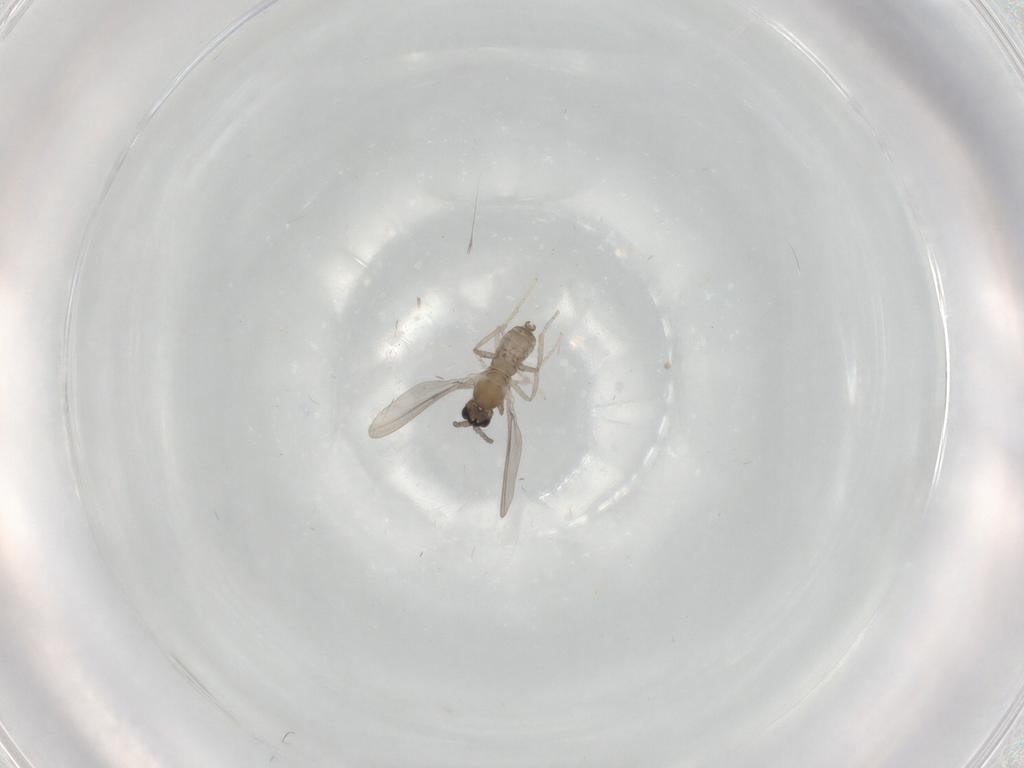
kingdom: Animalia
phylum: Arthropoda
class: Insecta
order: Diptera
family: Cecidomyiidae
